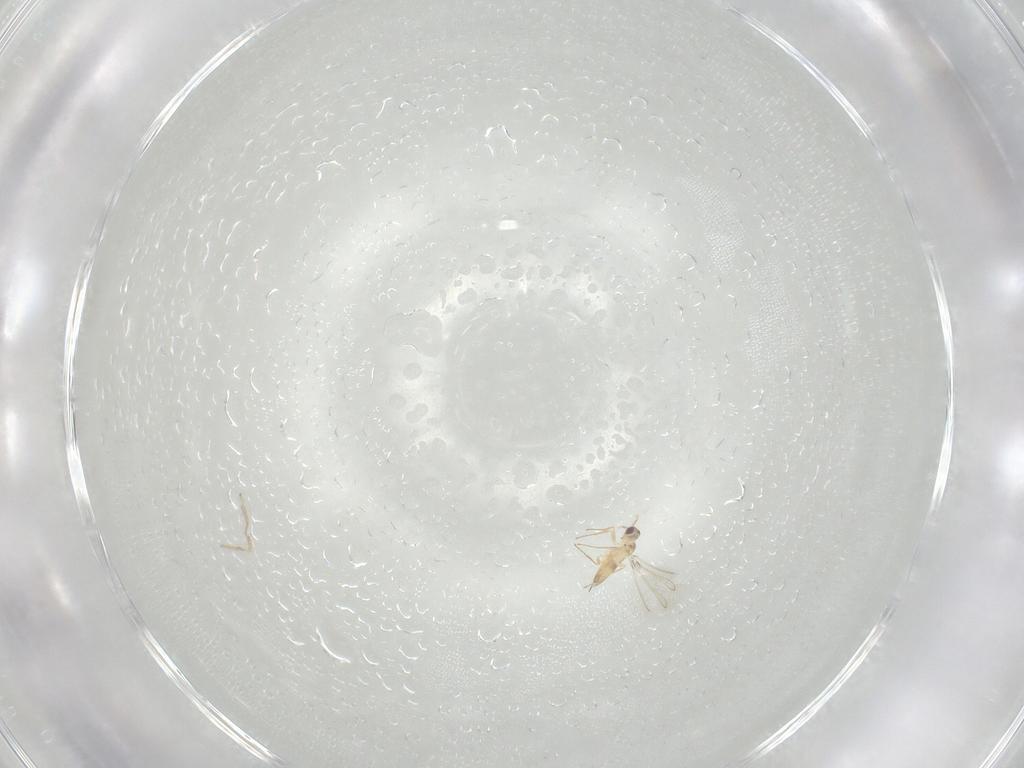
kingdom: Animalia
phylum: Arthropoda
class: Insecta
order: Hymenoptera
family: Mymaridae
